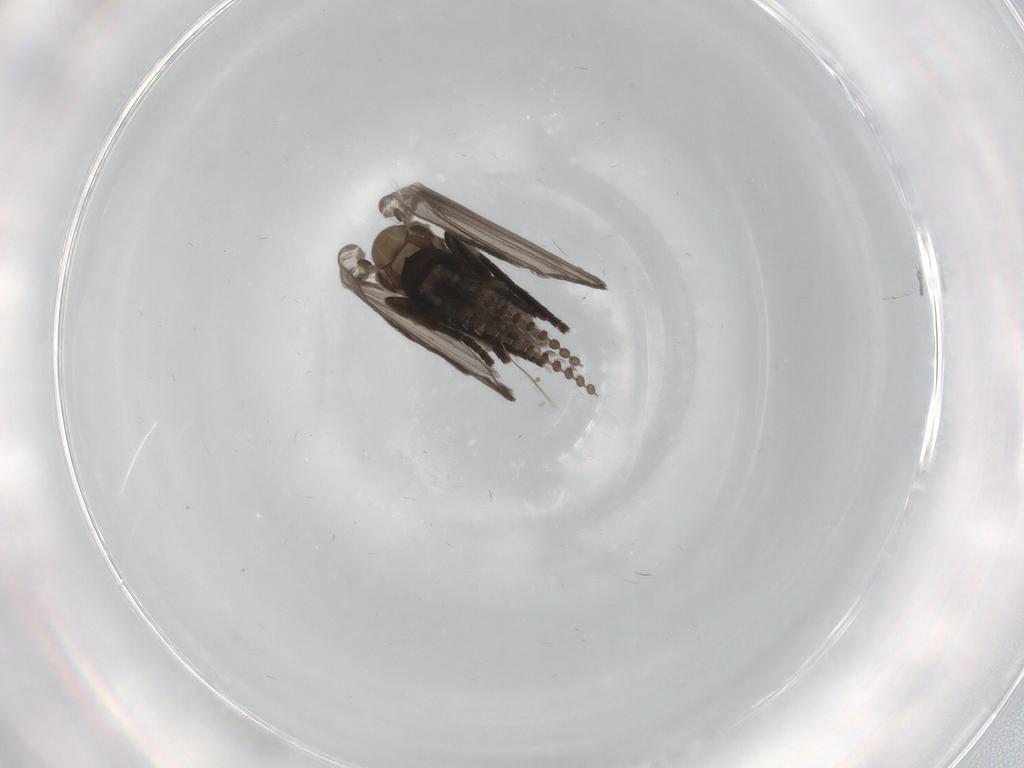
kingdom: Animalia
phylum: Arthropoda
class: Insecta
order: Diptera
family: Psychodidae
